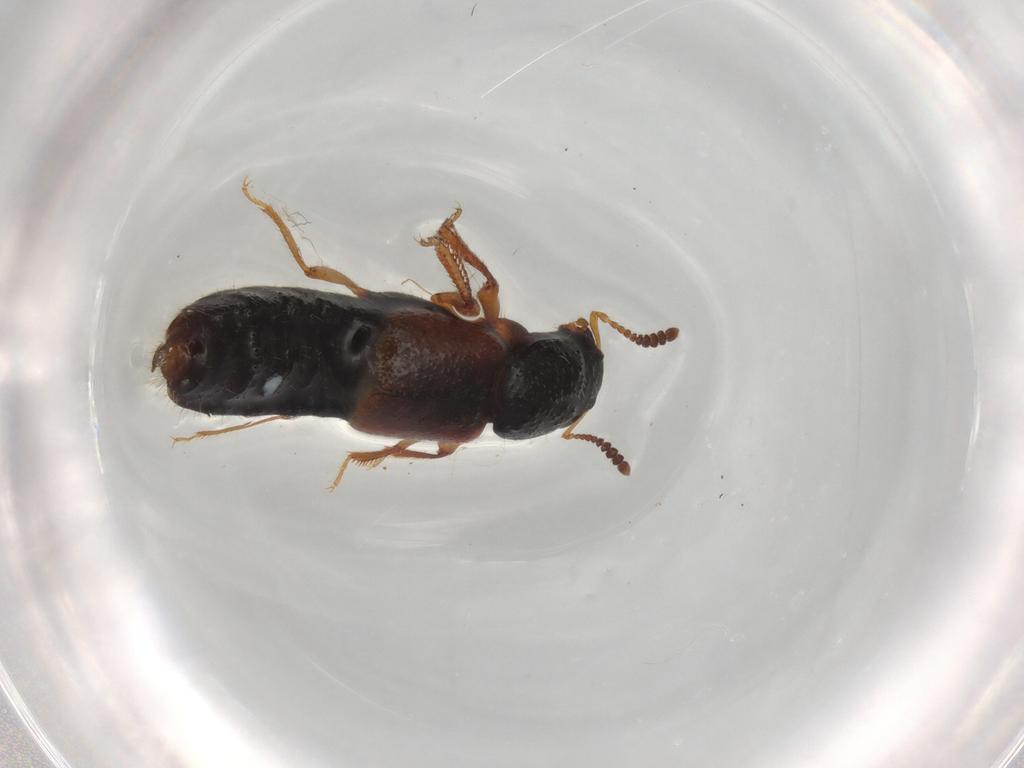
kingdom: Animalia
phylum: Arthropoda
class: Insecta
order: Coleoptera
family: Staphylinidae
